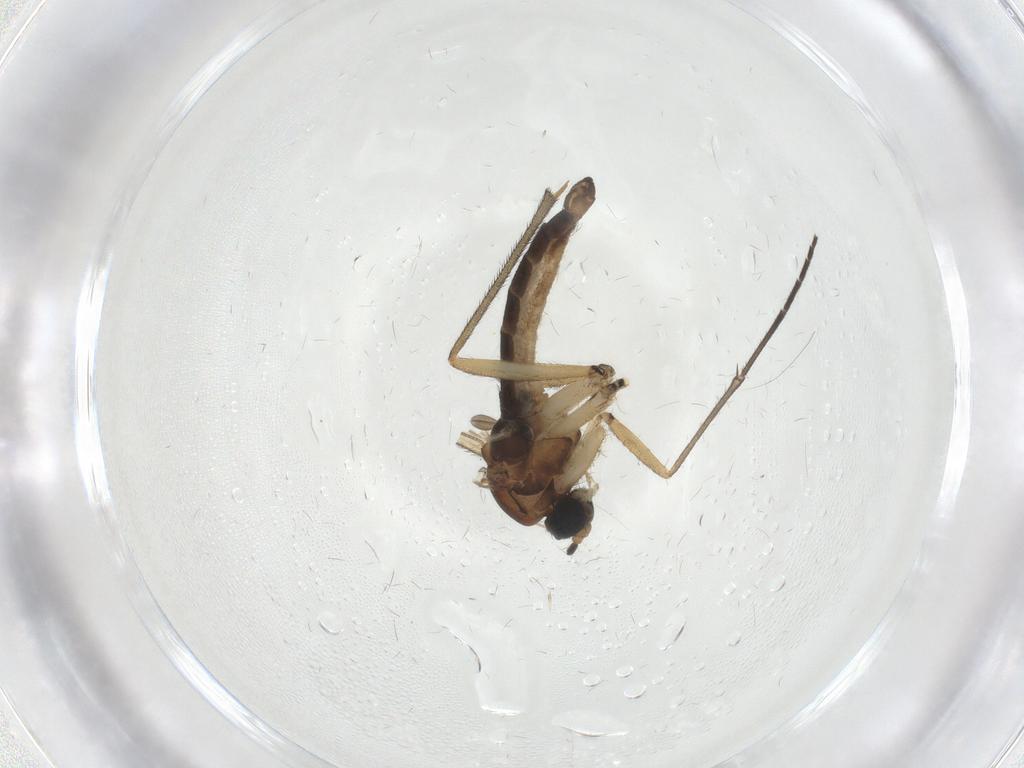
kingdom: Animalia
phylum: Arthropoda
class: Insecta
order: Diptera
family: Sciaridae
